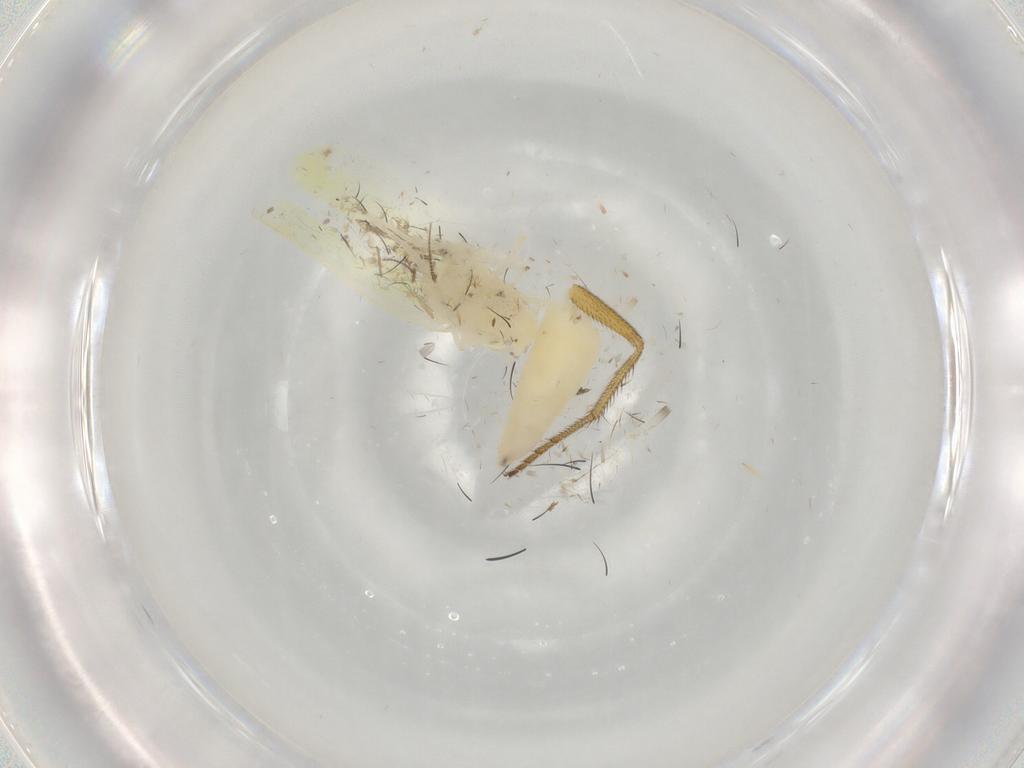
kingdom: Animalia
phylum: Arthropoda
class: Insecta
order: Hemiptera
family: Cicadellidae
